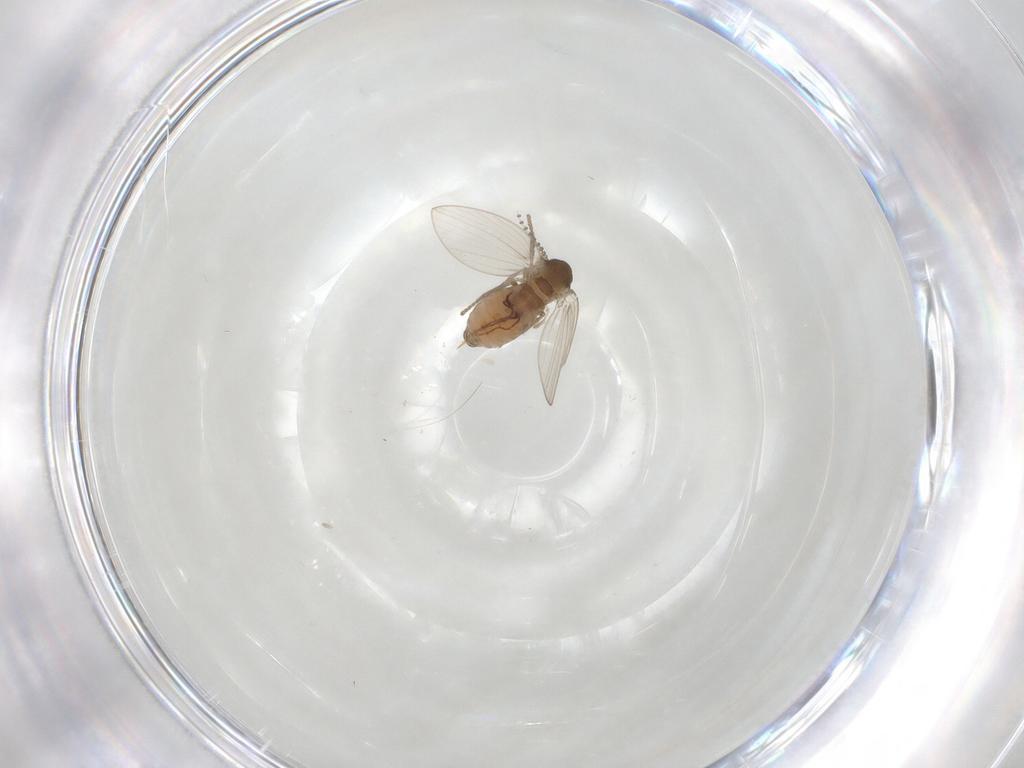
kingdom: Animalia
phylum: Arthropoda
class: Insecta
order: Diptera
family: Psychodidae
